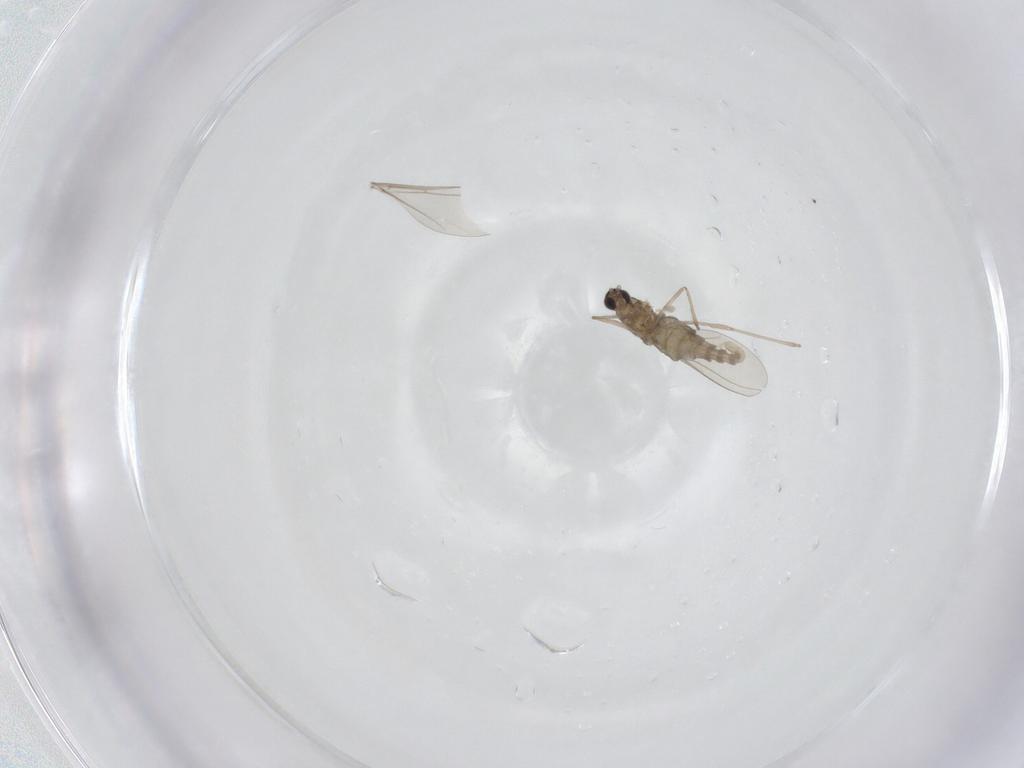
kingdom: Animalia
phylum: Arthropoda
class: Insecta
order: Diptera
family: Cecidomyiidae
